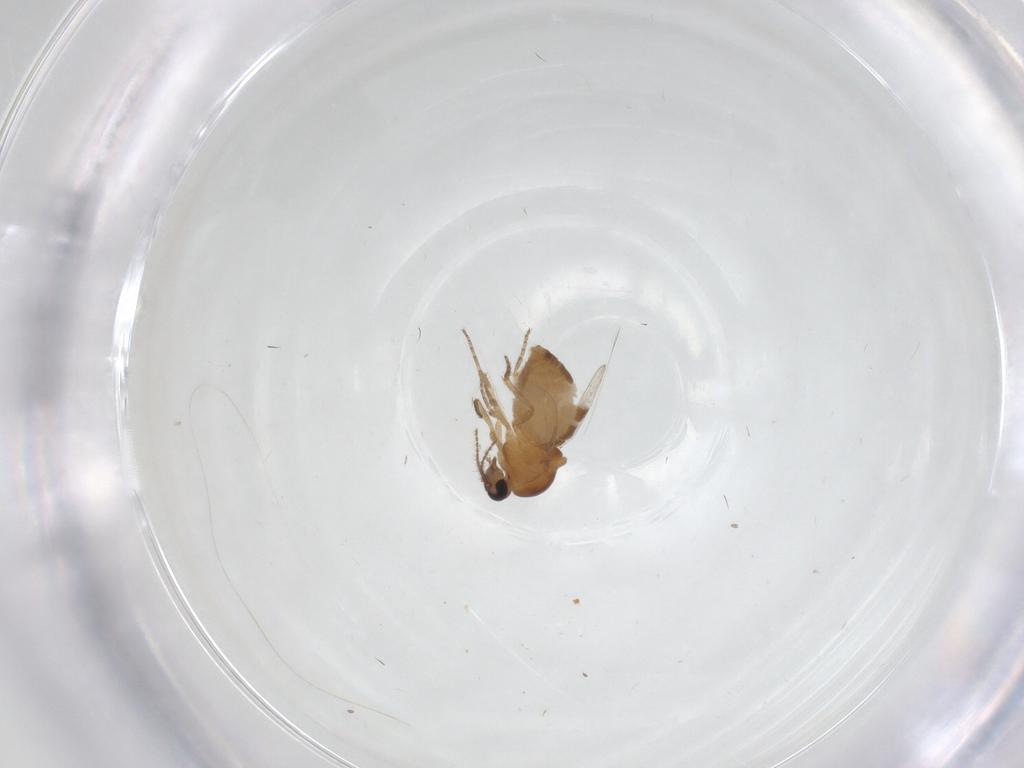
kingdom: Animalia
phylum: Arthropoda
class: Insecta
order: Diptera
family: Ceratopogonidae
